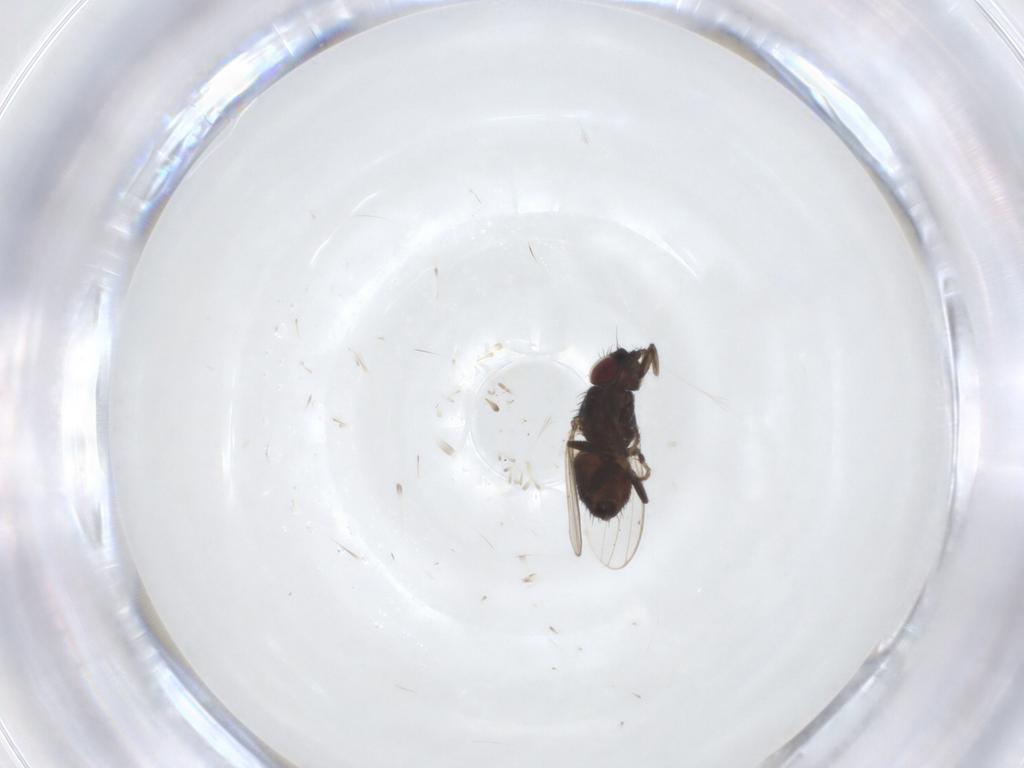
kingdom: Animalia
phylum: Arthropoda
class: Insecta
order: Diptera
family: Milichiidae
